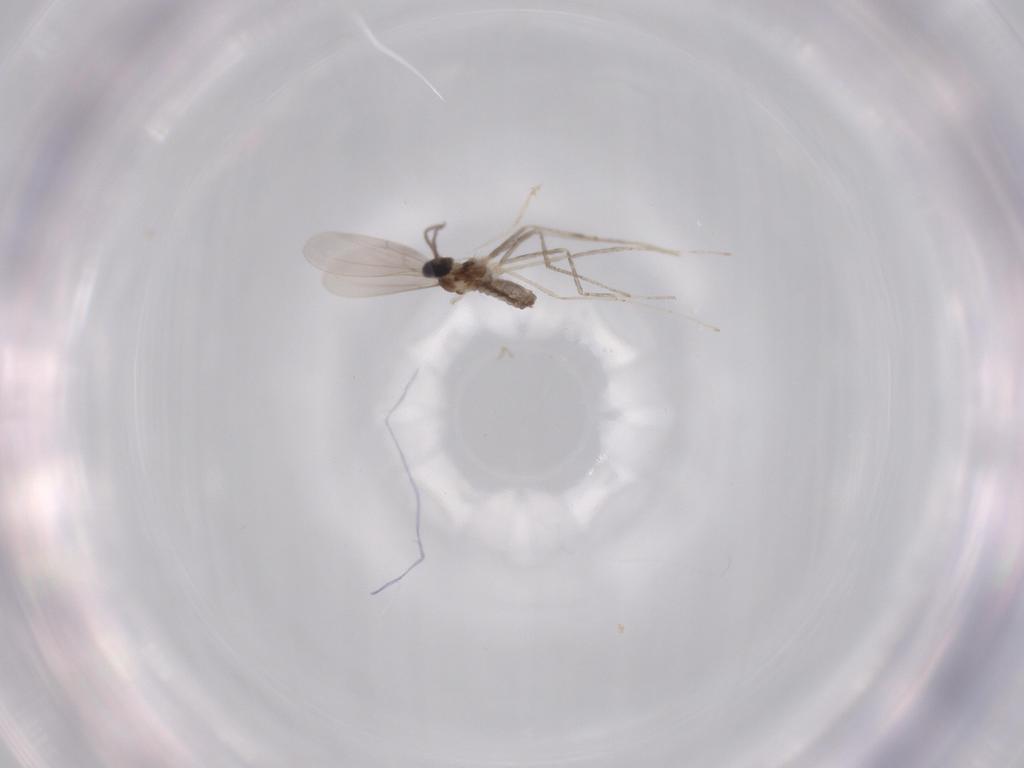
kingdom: Animalia
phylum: Arthropoda
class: Insecta
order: Diptera
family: Cecidomyiidae
